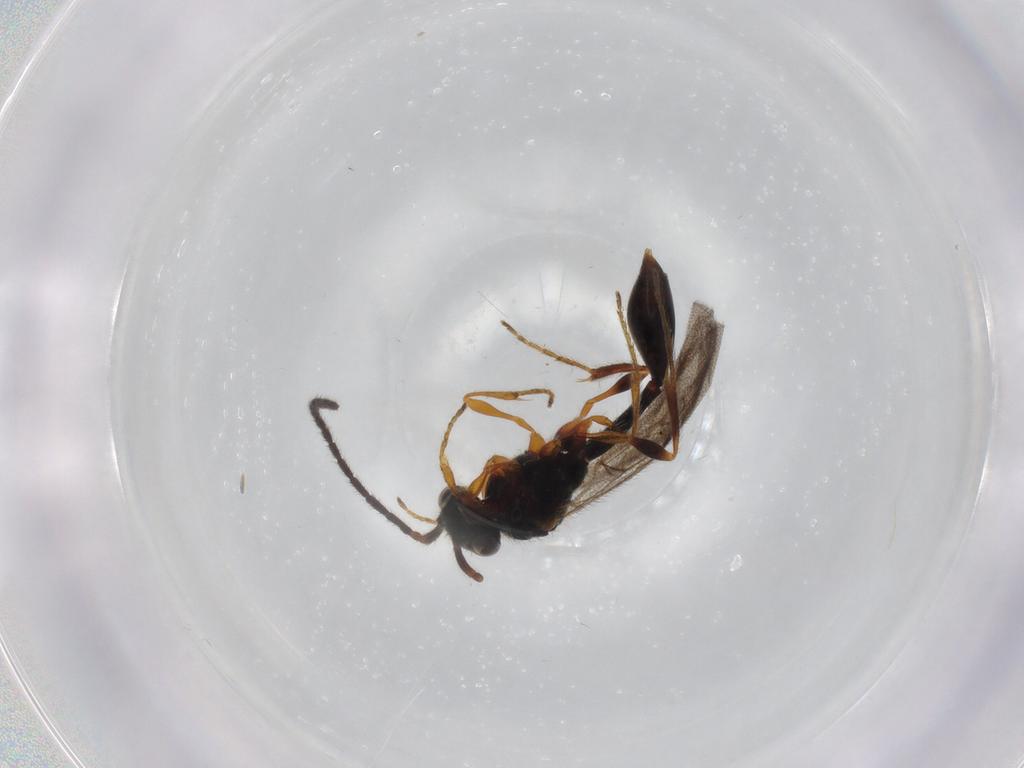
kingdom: Animalia
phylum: Arthropoda
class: Insecta
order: Hymenoptera
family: Diapriidae
